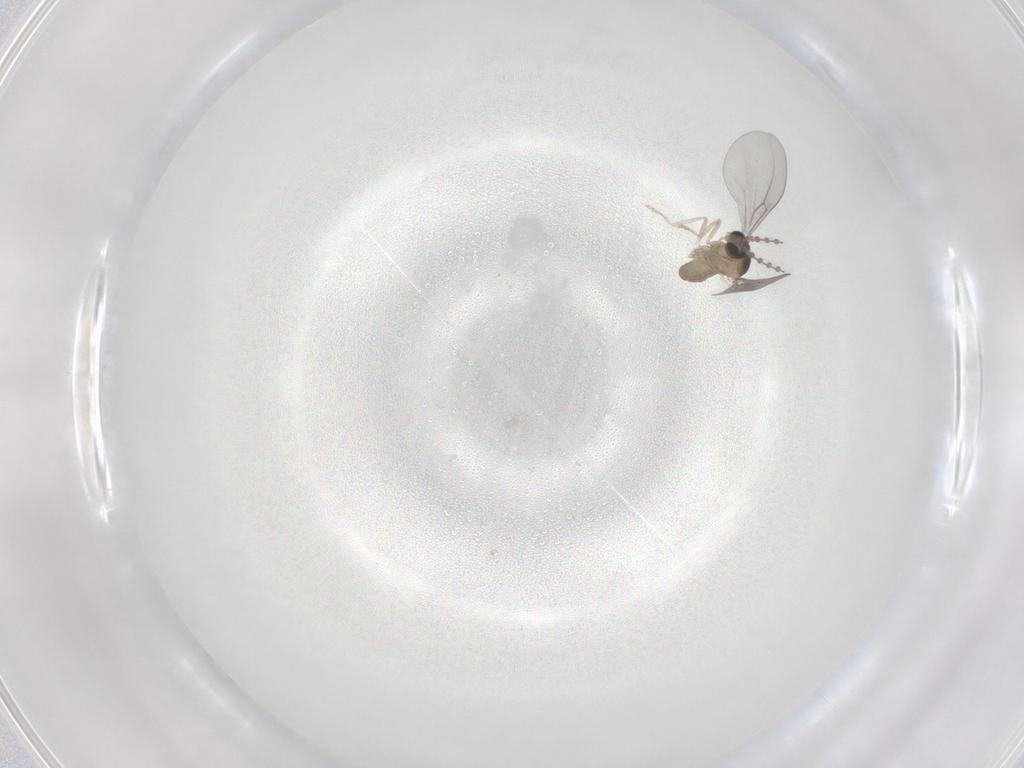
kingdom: Animalia
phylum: Arthropoda
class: Insecta
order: Diptera
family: Cecidomyiidae
